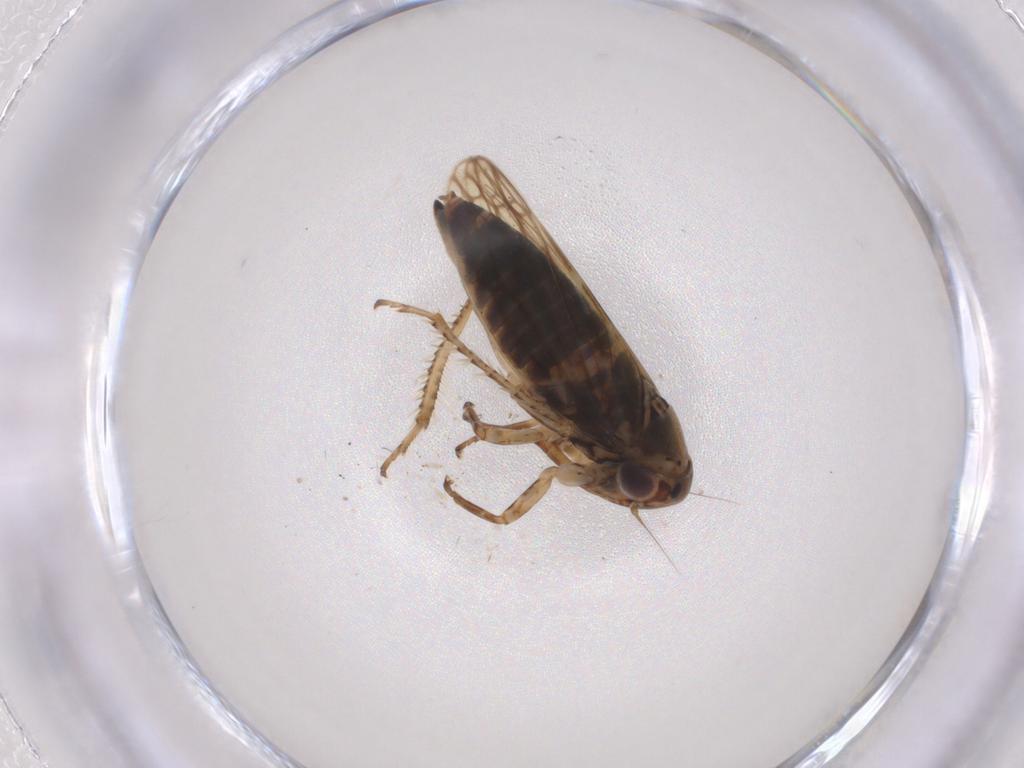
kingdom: Animalia
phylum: Arthropoda
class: Insecta
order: Hemiptera
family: Cicadellidae
